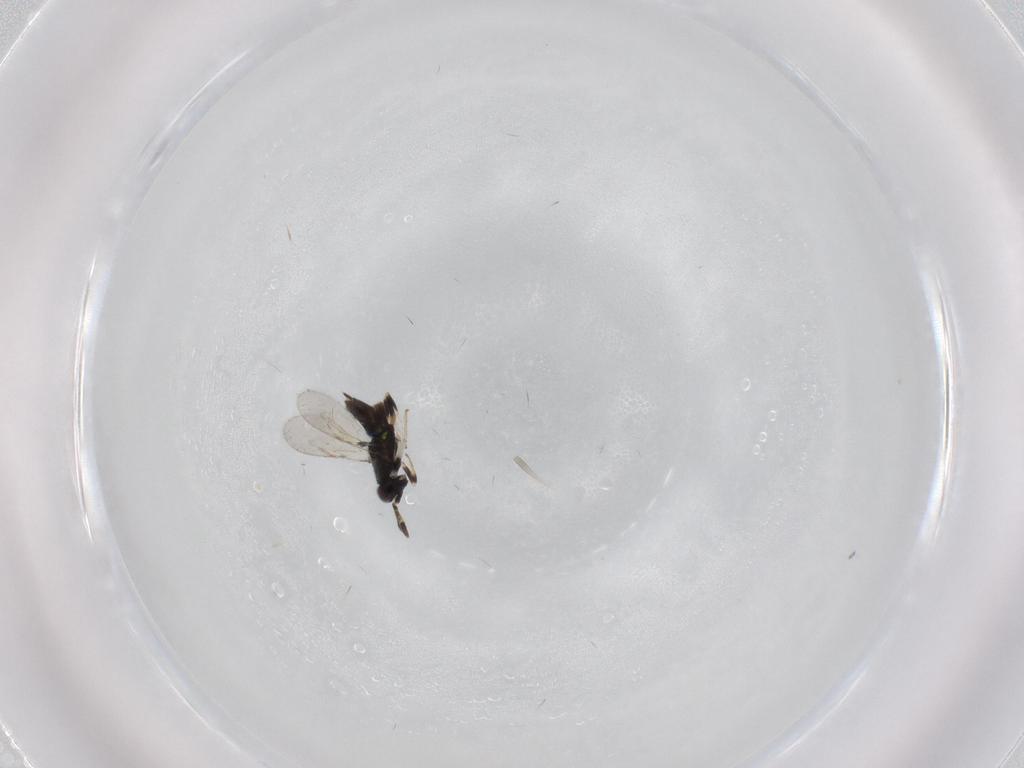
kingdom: Animalia
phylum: Arthropoda
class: Insecta
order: Hymenoptera
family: Aphelinidae
